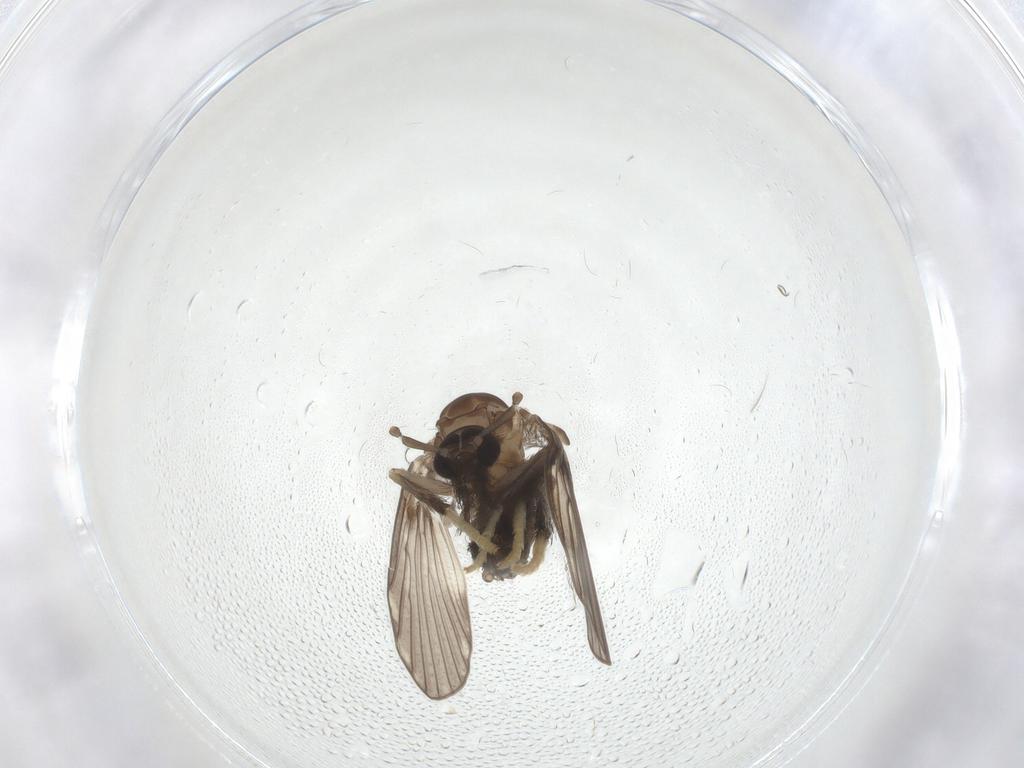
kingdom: Animalia
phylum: Arthropoda
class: Insecta
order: Diptera
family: Psychodidae
